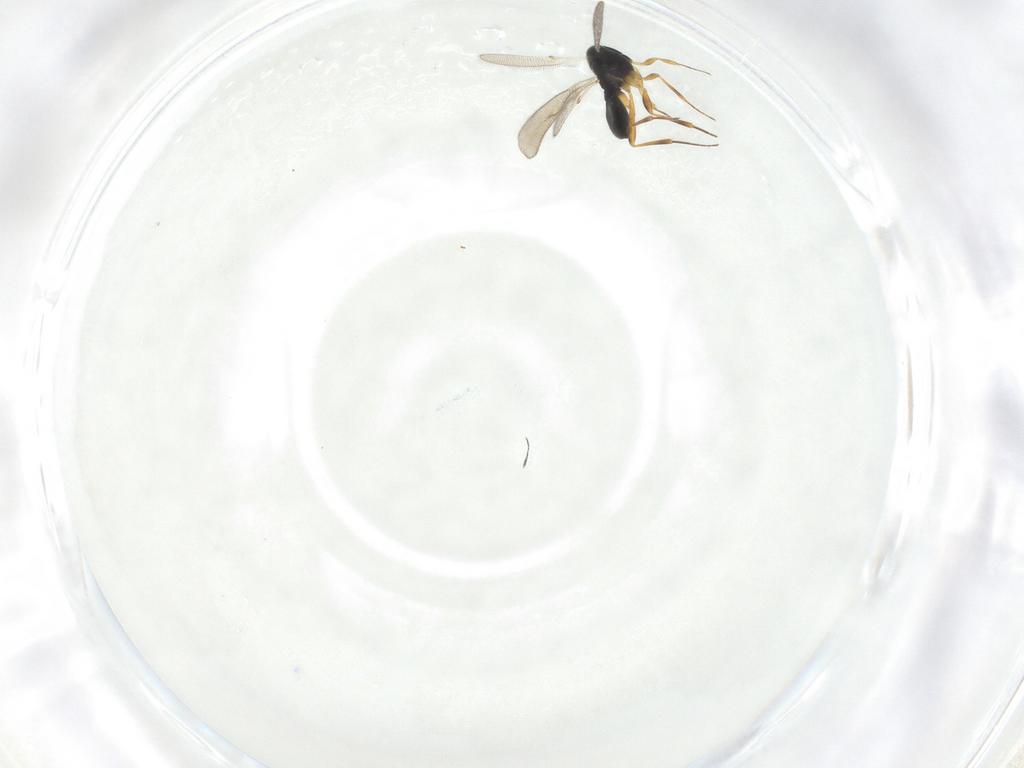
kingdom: Animalia
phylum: Arthropoda
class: Insecta
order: Hymenoptera
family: Scelionidae
